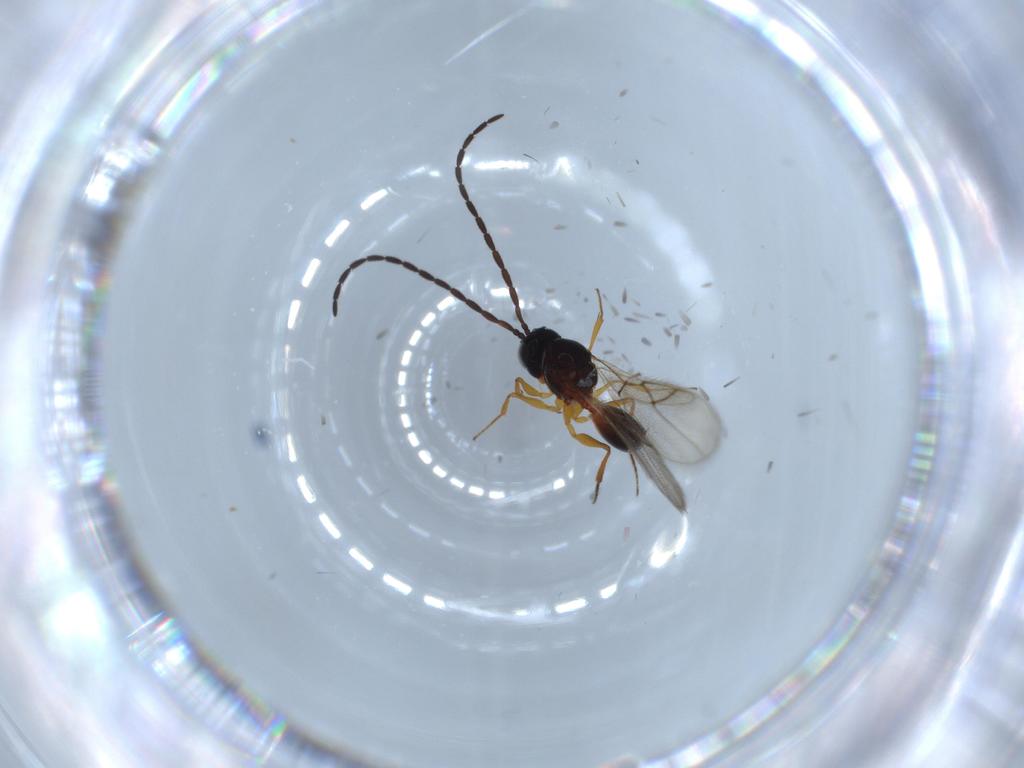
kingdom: Animalia
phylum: Arthropoda
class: Insecta
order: Hymenoptera
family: Figitidae
